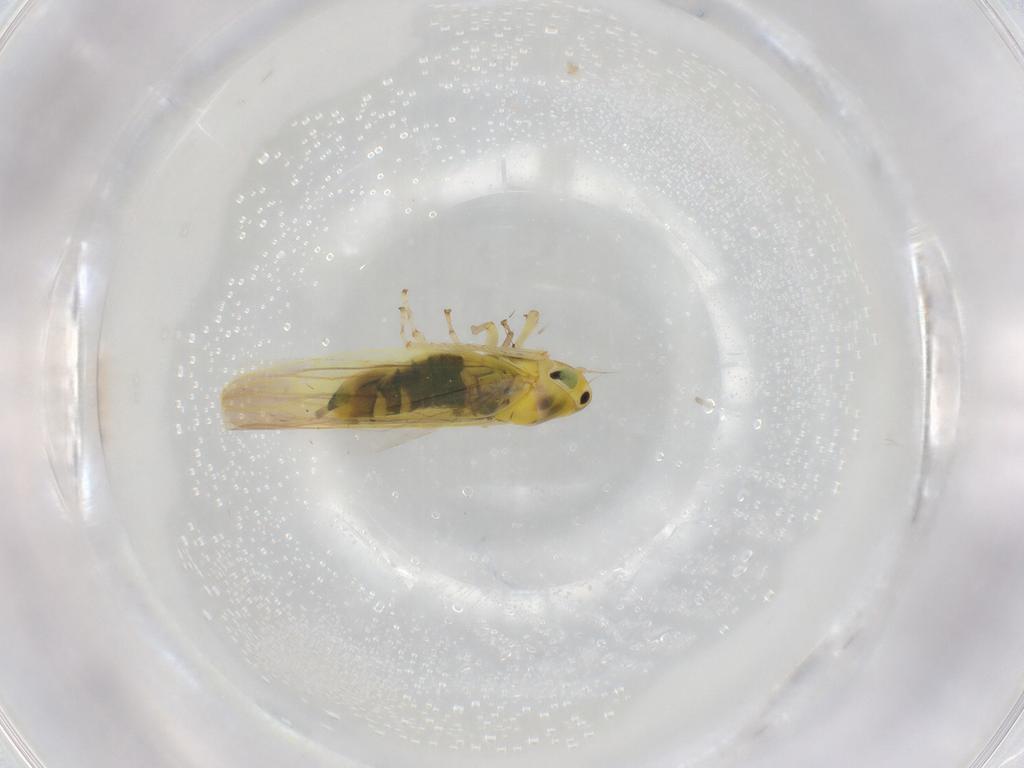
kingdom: Animalia
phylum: Arthropoda
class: Insecta
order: Hemiptera
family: Cicadellidae
